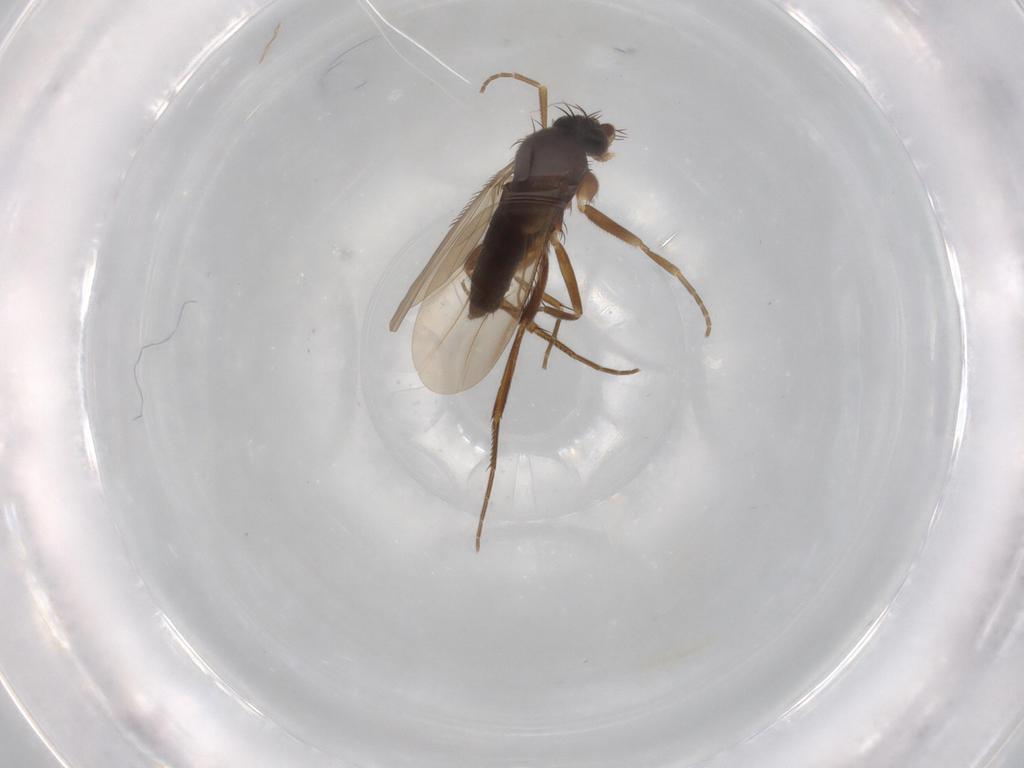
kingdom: Animalia
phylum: Arthropoda
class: Insecta
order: Diptera
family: Phoridae
